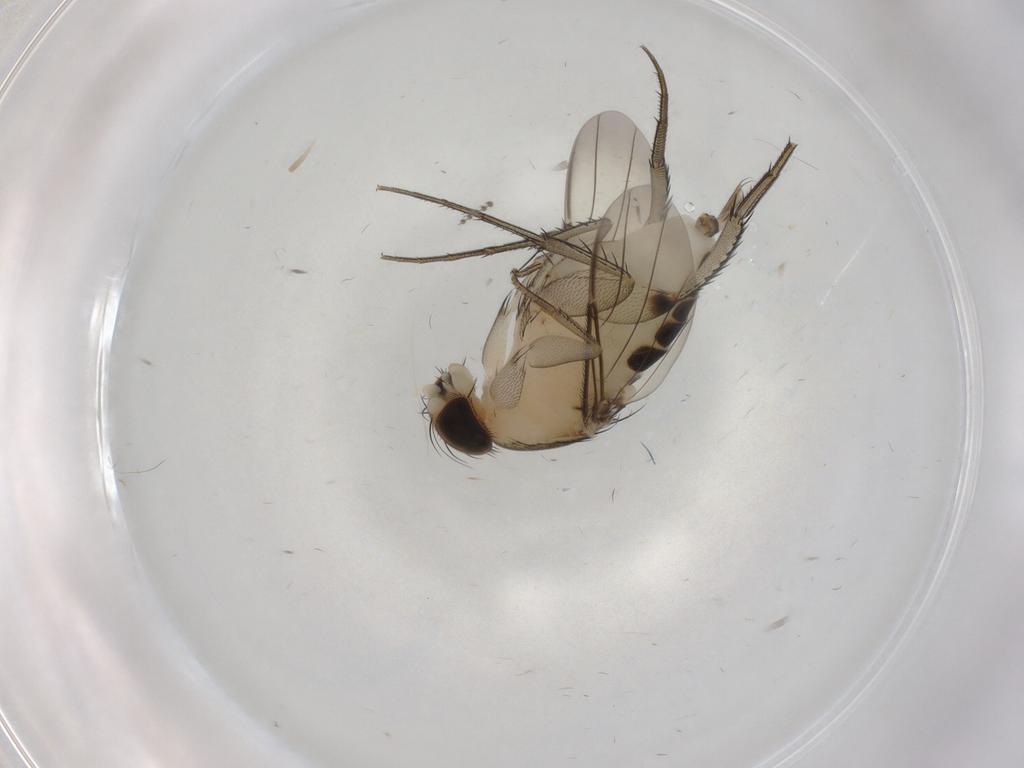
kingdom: Animalia
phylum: Arthropoda
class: Insecta
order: Diptera
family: Phoridae
